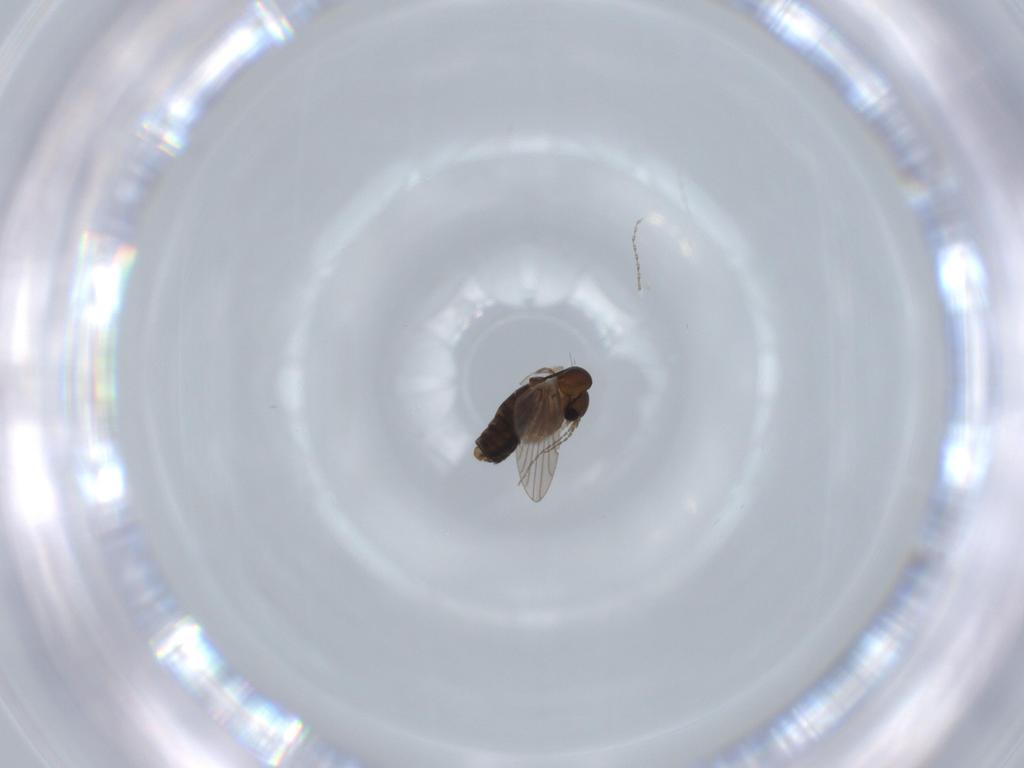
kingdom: Animalia
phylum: Arthropoda
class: Insecta
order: Diptera
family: Cecidomyiidae
